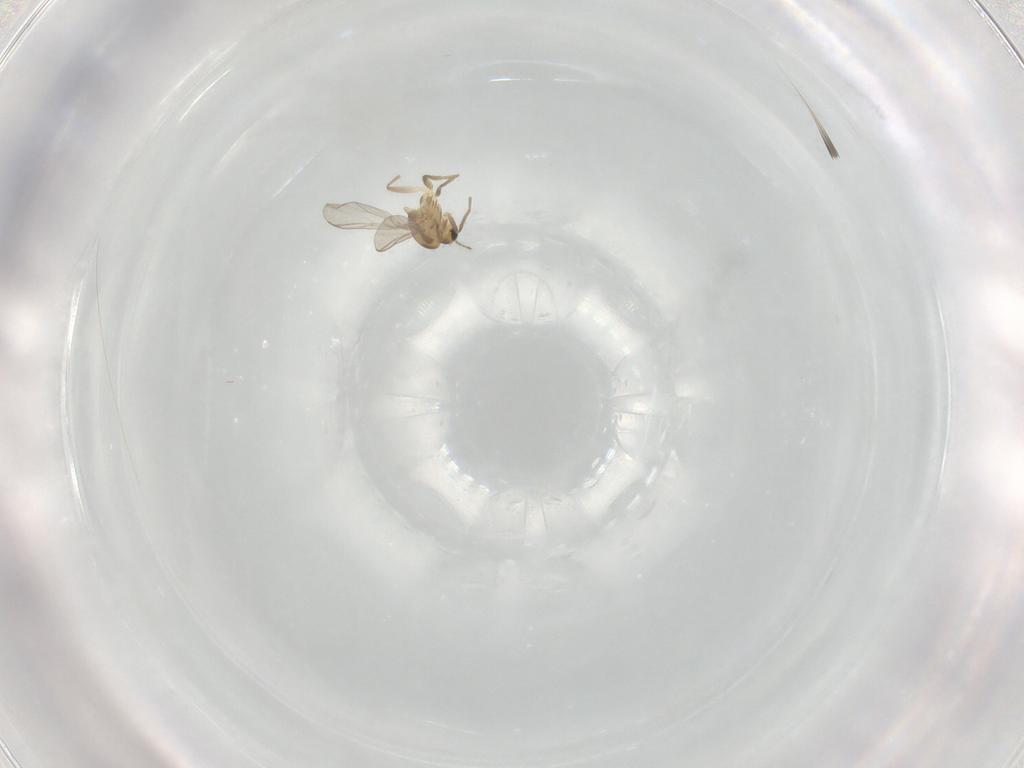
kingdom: Animalia
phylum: Arthropoda
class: Insecta
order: Diptera
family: Chironomidae
